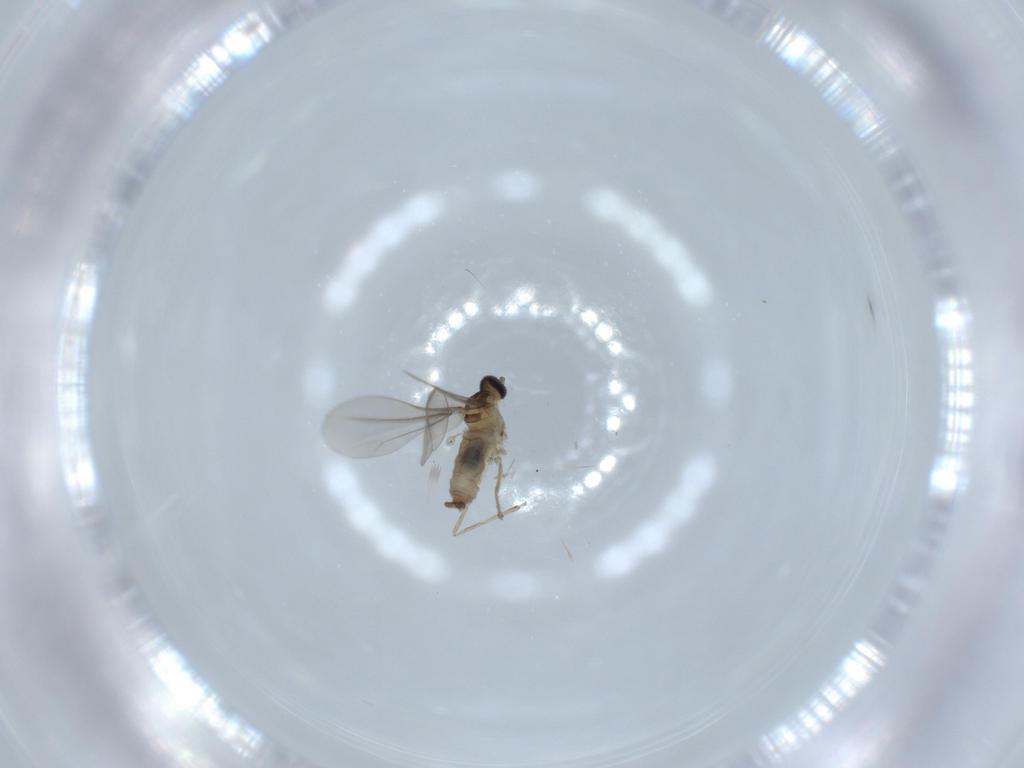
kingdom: Animalia
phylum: Arthropoda
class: Insecta
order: Diptera
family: Cecidomyiidae
